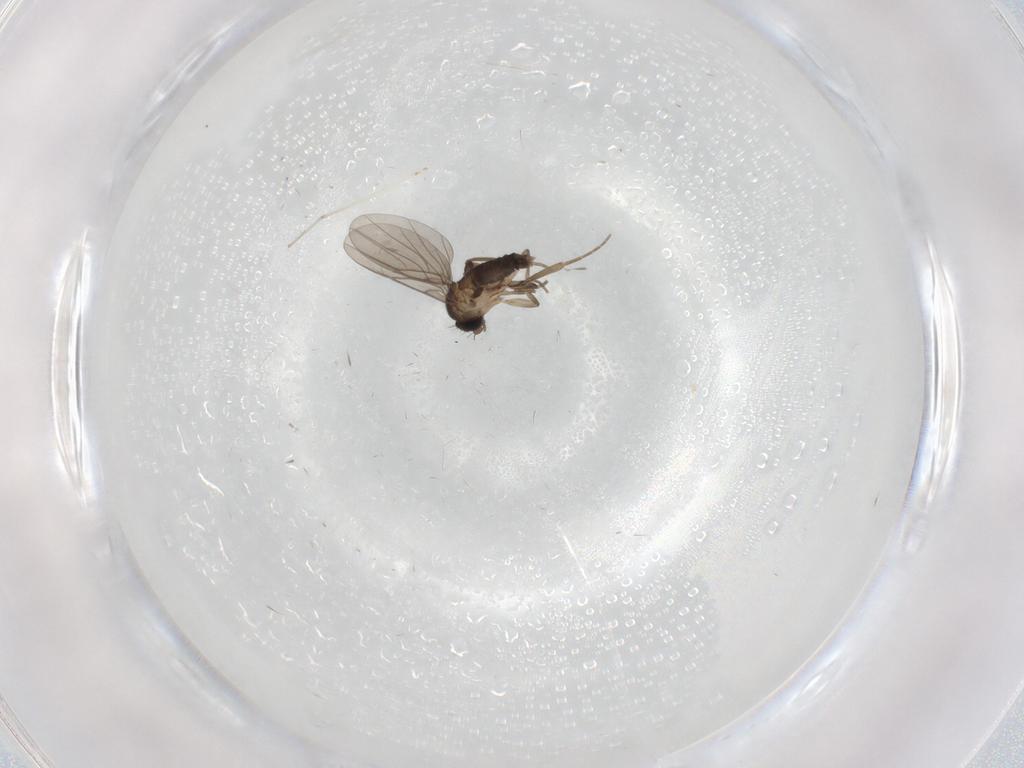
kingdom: Animalia
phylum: Arthropoda
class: Insecta
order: Diptera
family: Phoridae
